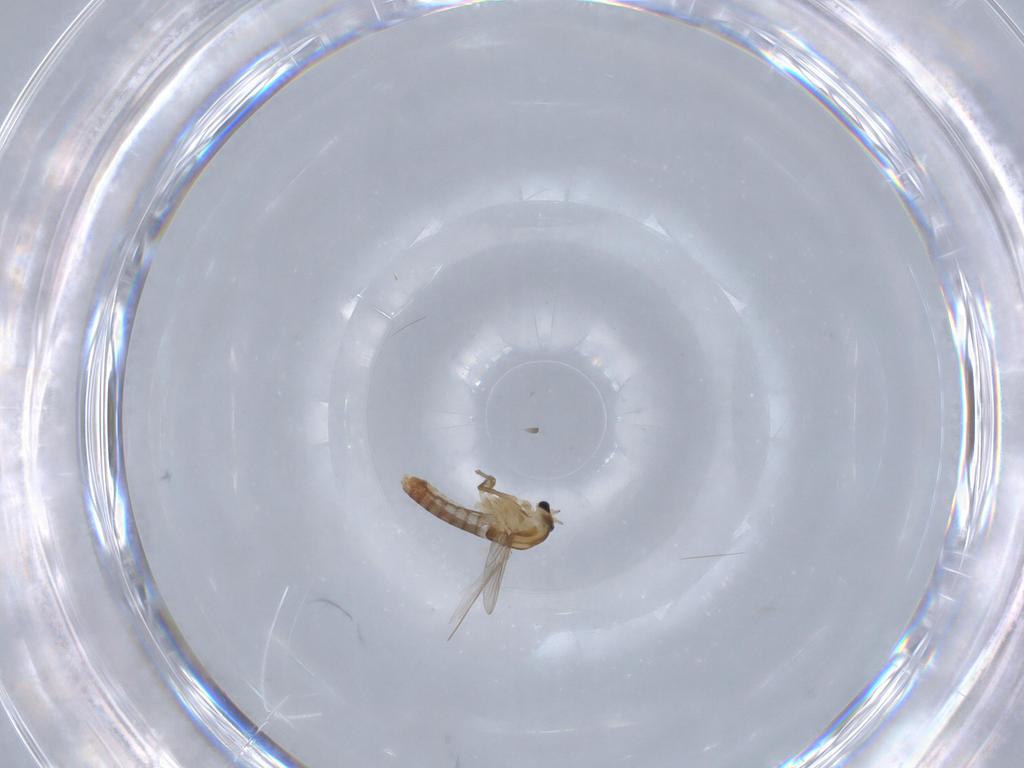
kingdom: Animalia
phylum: Arthropoda
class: Insecta
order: Diptera
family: Chironomidae
